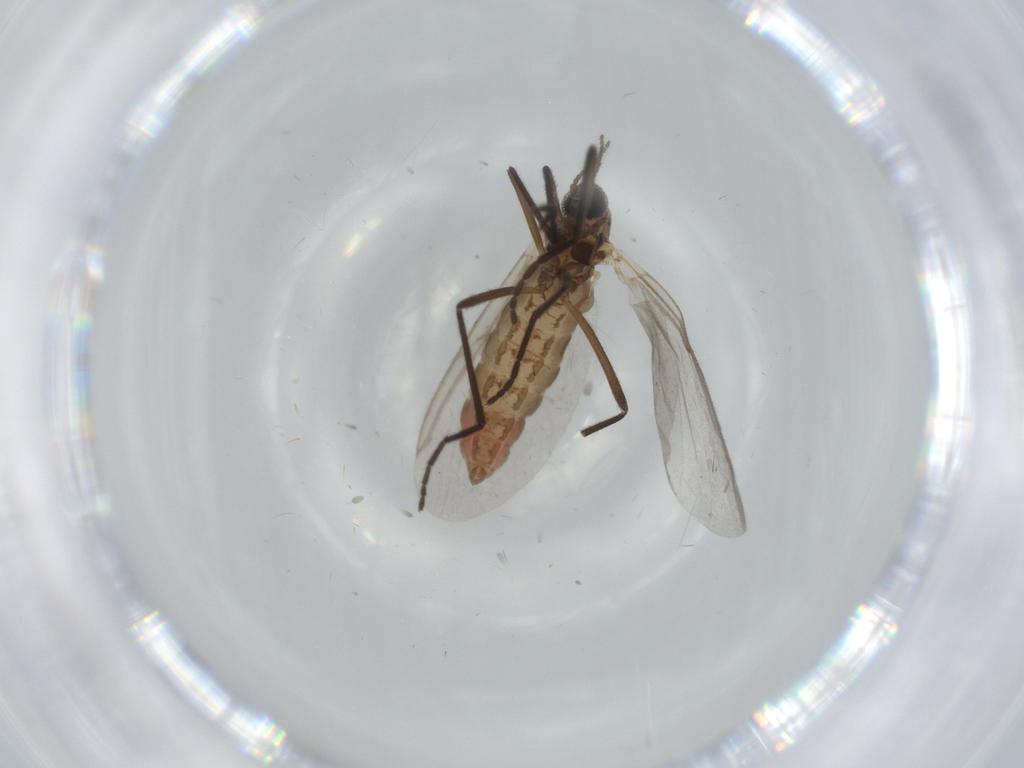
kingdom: Animalia
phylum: Arthropoda
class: Insecta
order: Diptera
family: Cecidomyiidae
